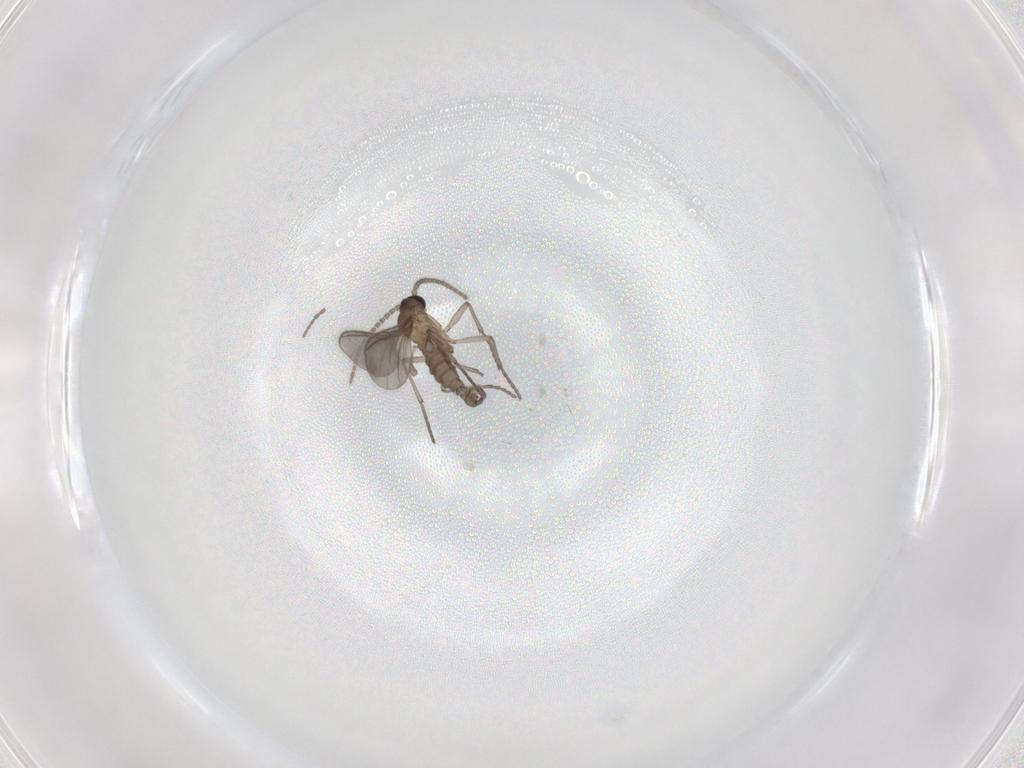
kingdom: Animalia
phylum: Arthropoda
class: Insecta
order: Diptera
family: Sciaridae
